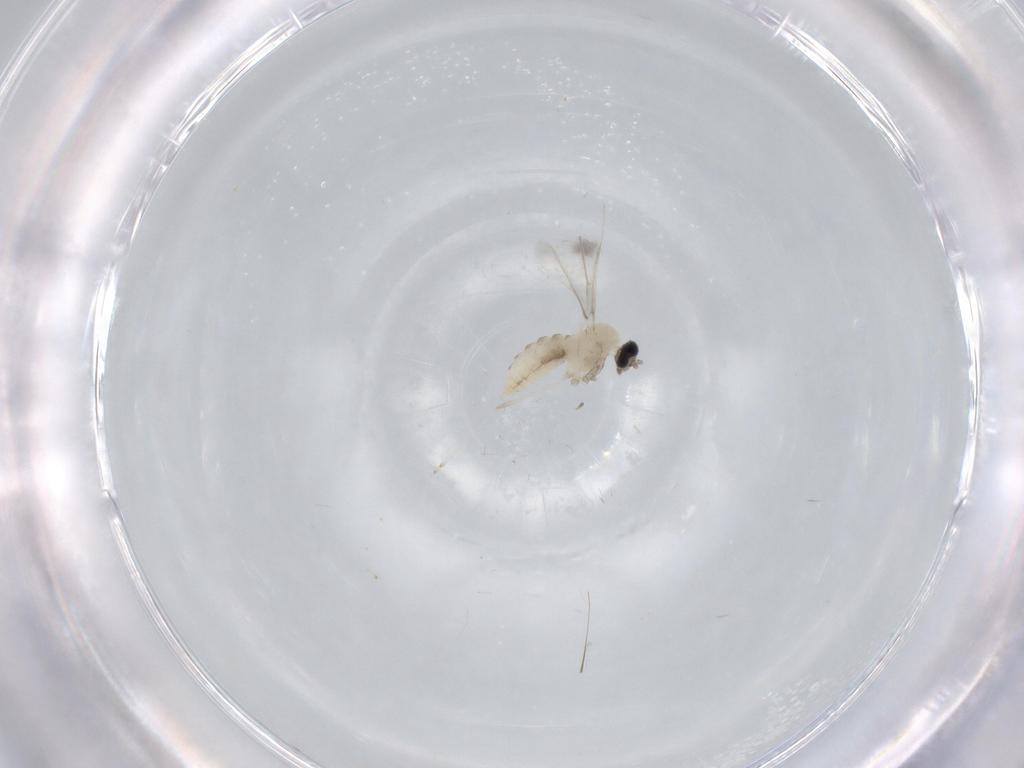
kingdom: Animalia
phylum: Arthropoda
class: Insecta
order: Diptera
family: Cecidomyiidae
